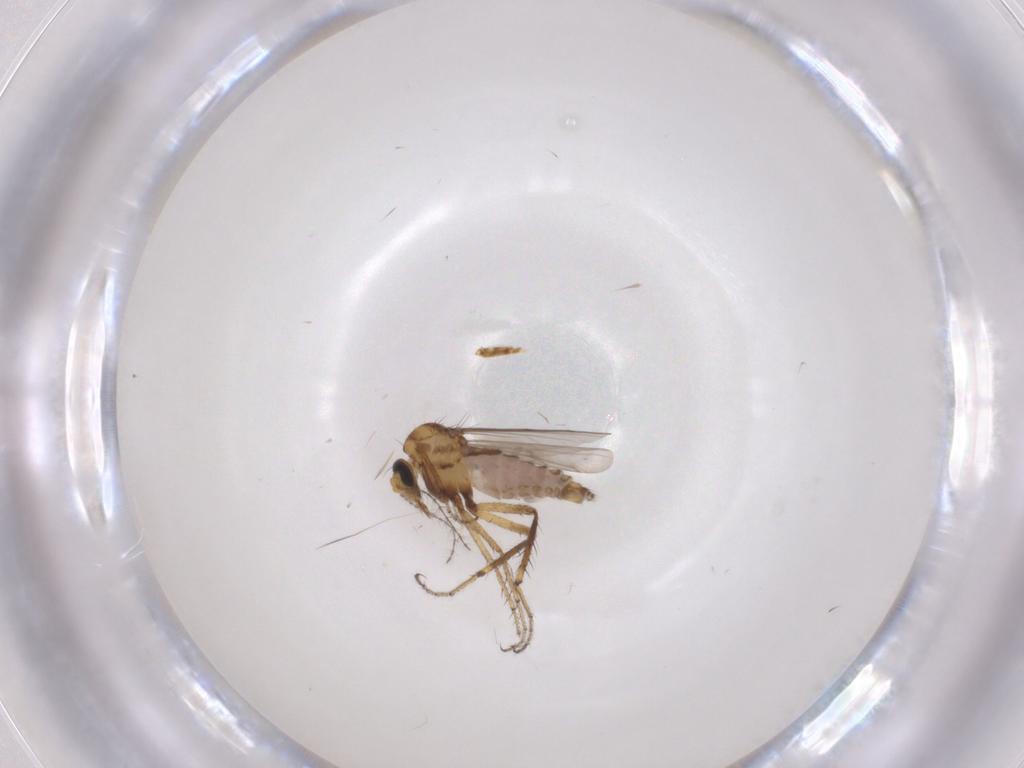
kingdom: Animalia
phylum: Arthropoda
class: Insecta
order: Diptera
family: Ceratopogonidae
